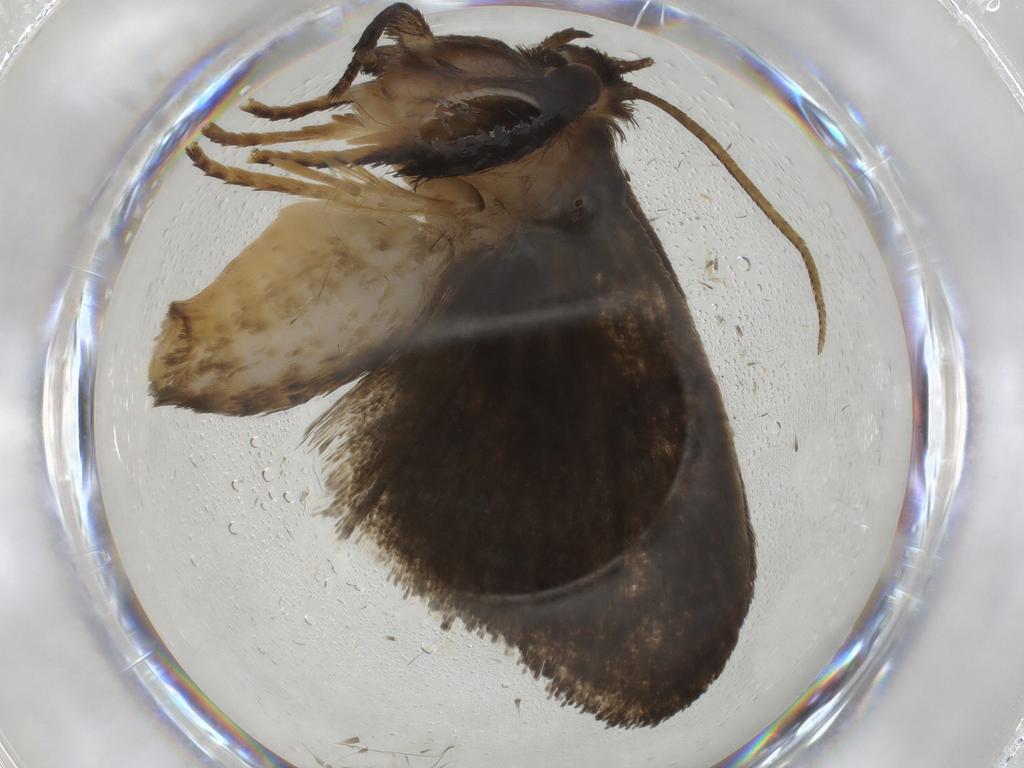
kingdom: Animalia
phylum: Arthropoda
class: Insecta
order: Lepidoptera
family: Limacodidae
